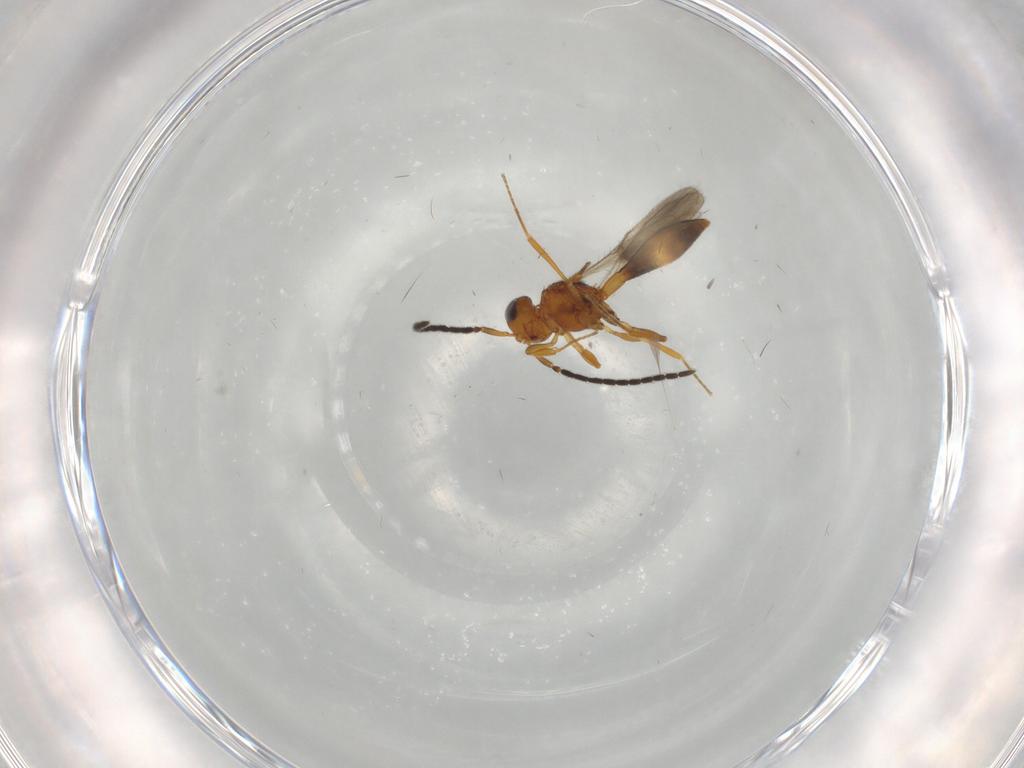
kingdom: Animalia
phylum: Arthropoda
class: Insecta
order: Hymenoptera
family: Scelionidae
